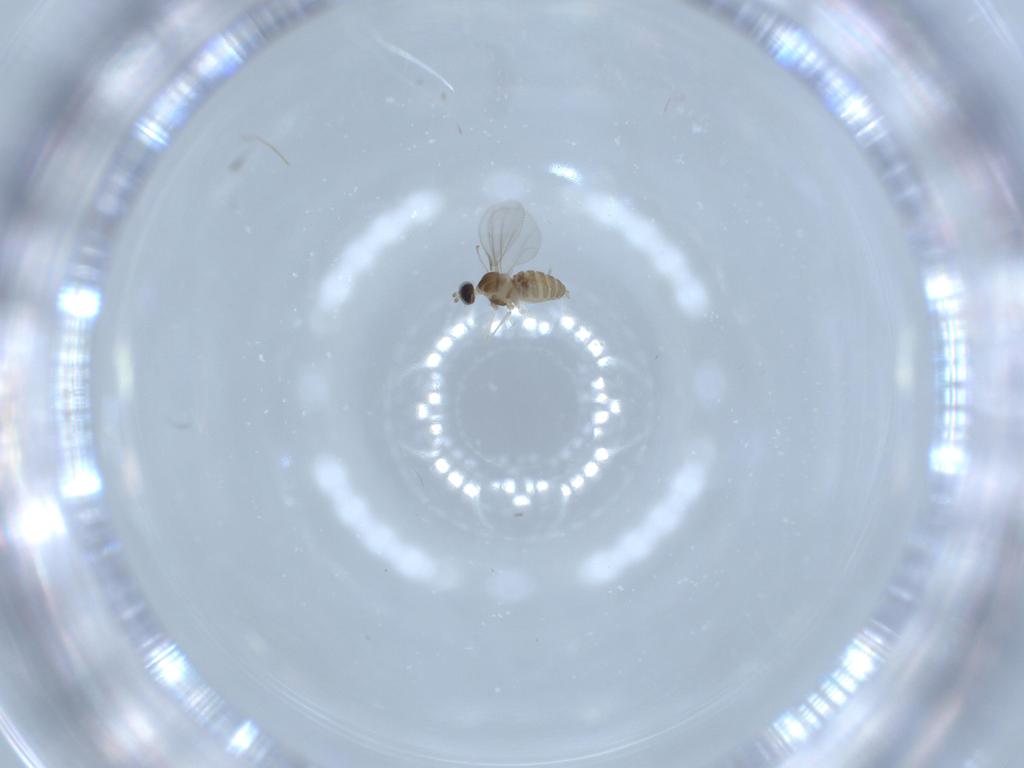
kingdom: Animalia
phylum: Arthropoda
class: Insecta
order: Diptera
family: Cecidomyiidae
